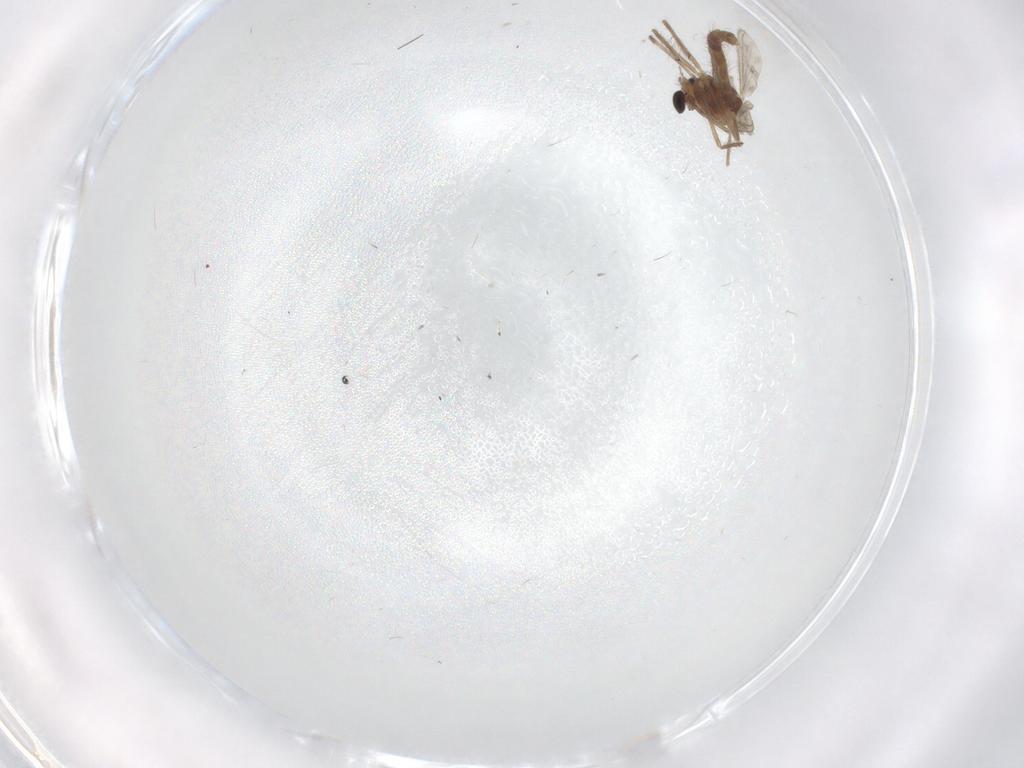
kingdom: Animalia
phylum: Arthropoda
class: Insecta
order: Diptera
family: Chironomidae
